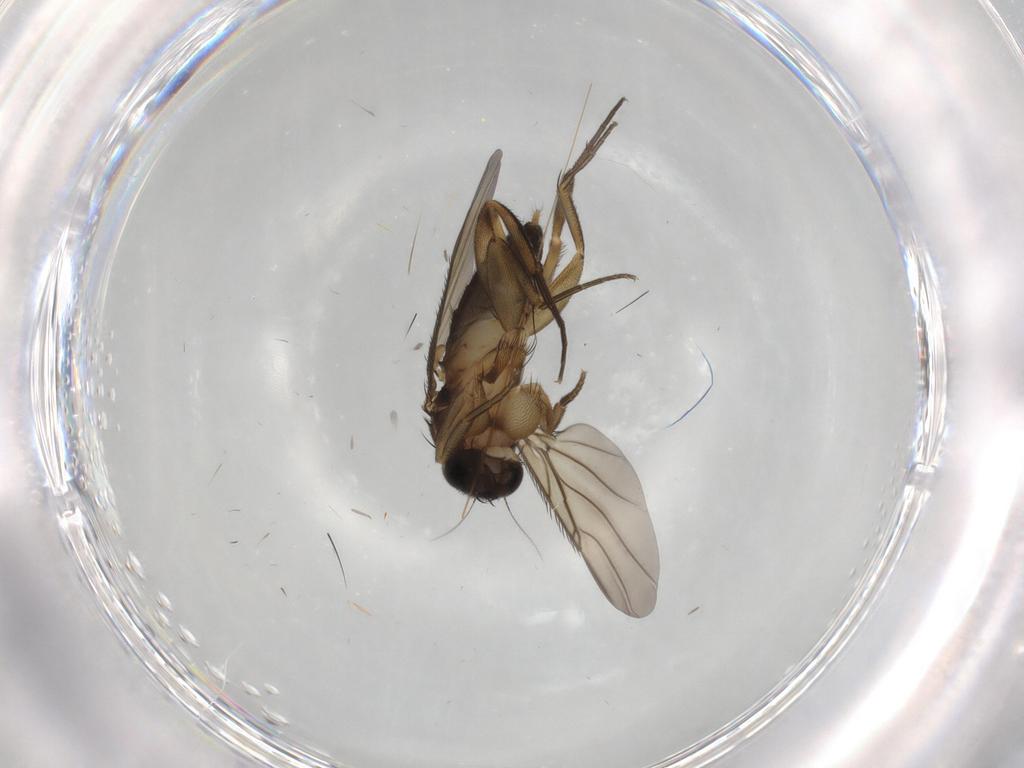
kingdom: Animalia
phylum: Arthropoda
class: Insecta
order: Diptera
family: Phoridae
